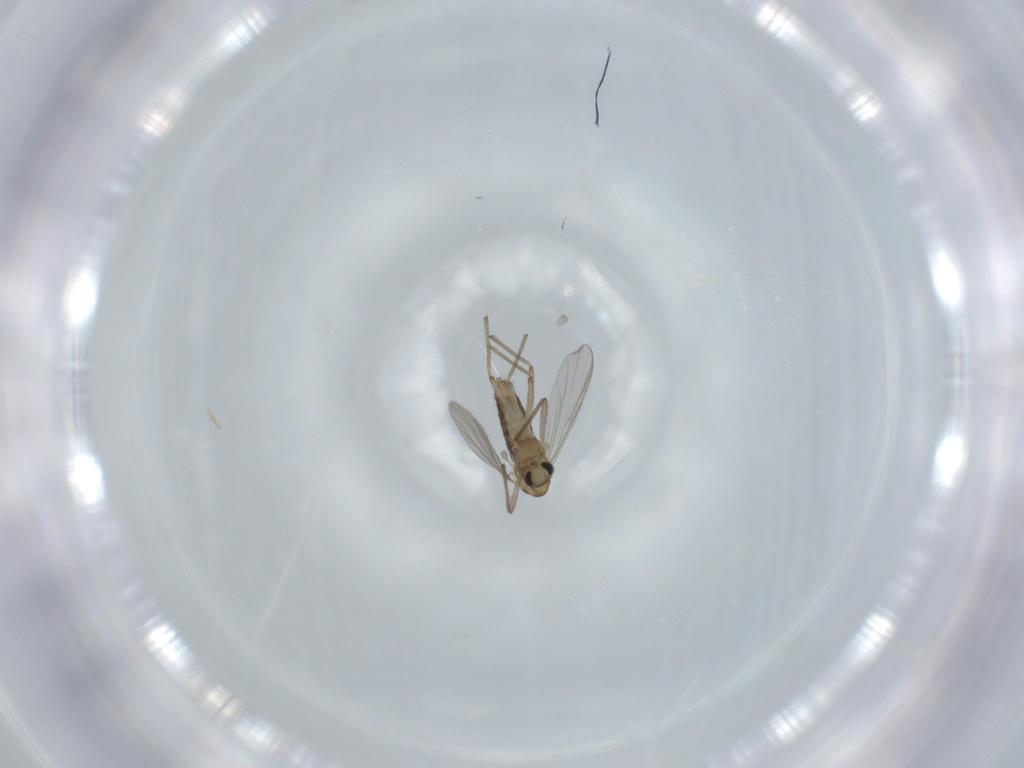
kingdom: Animalia
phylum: Arthropoda
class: Insecta
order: Diptera
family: Chironomidae
